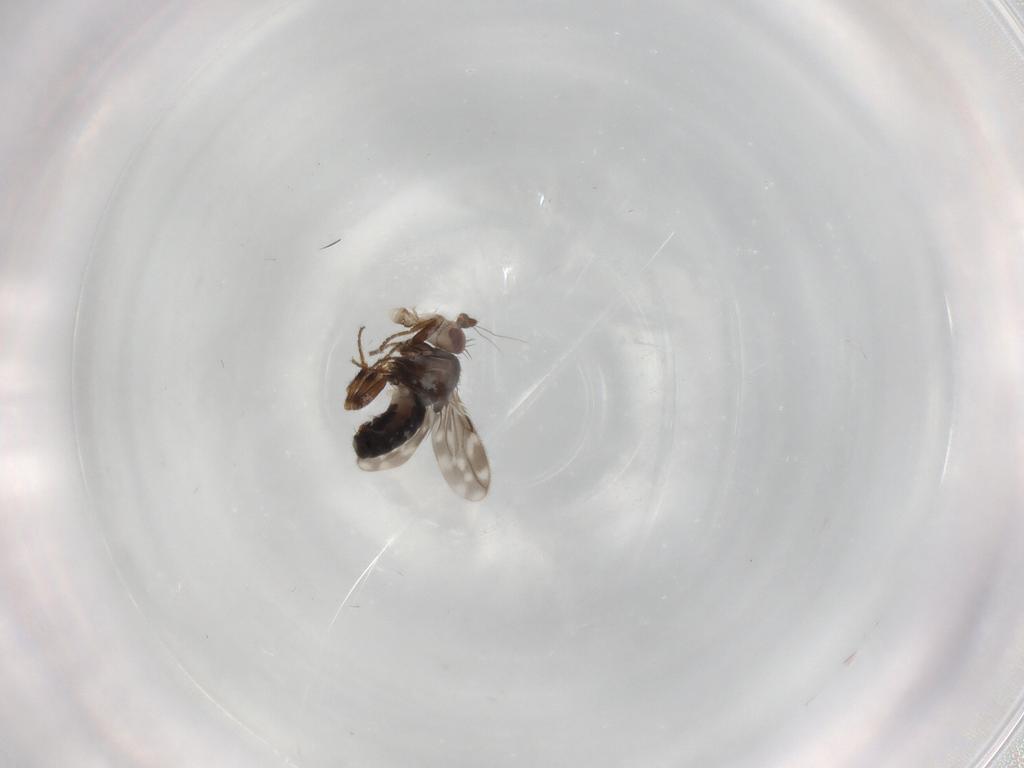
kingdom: Animalia
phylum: Arthropoda
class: Insecta
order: Diptera
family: Sphaeroceridae
